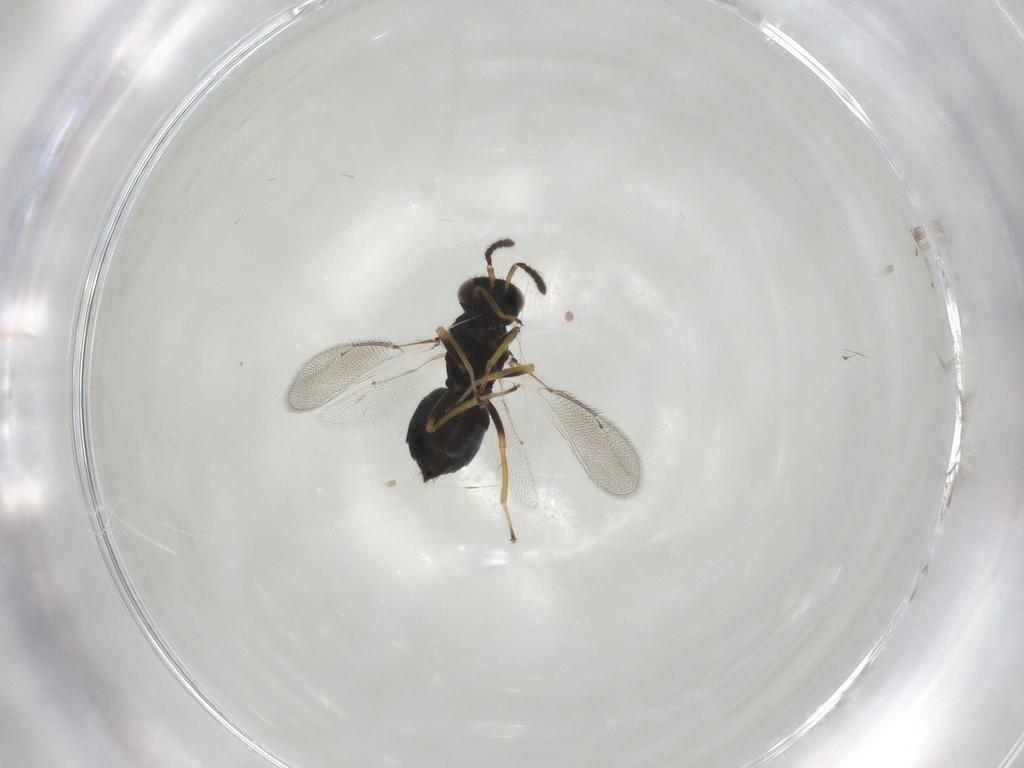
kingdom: Animalia
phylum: Arthropoda
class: Insecta
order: Hymenoptera
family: Eulophidae
